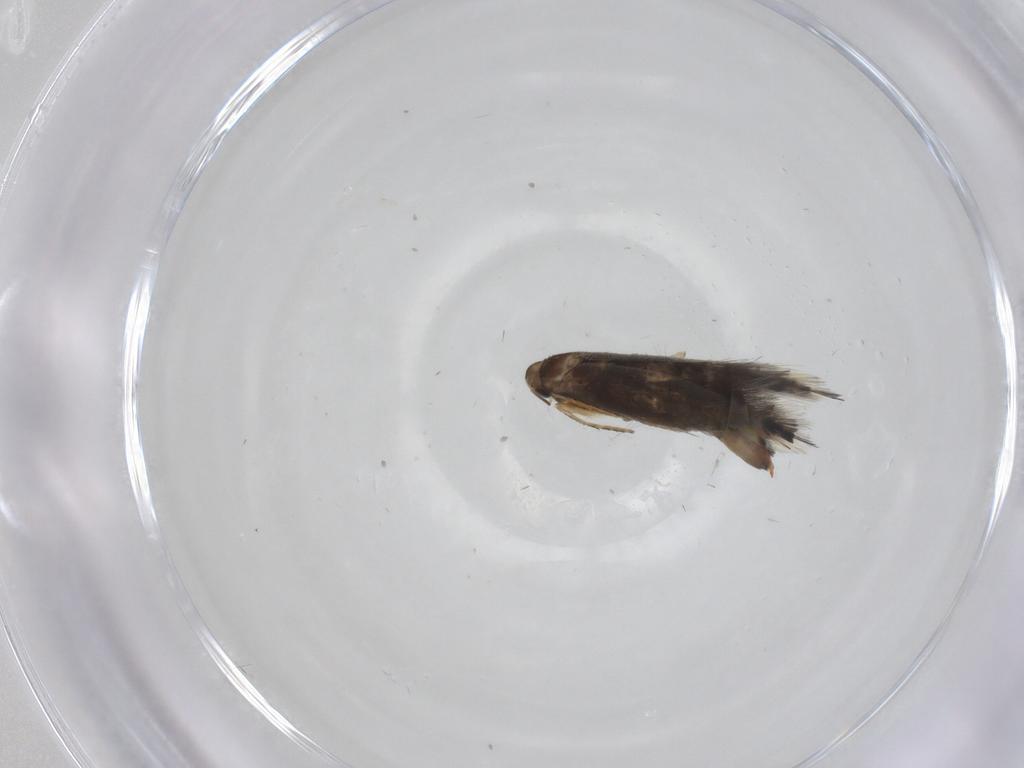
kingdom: Animalia
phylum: Arthropoda
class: Insecta
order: Lepidoptera
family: Heliozelidae
